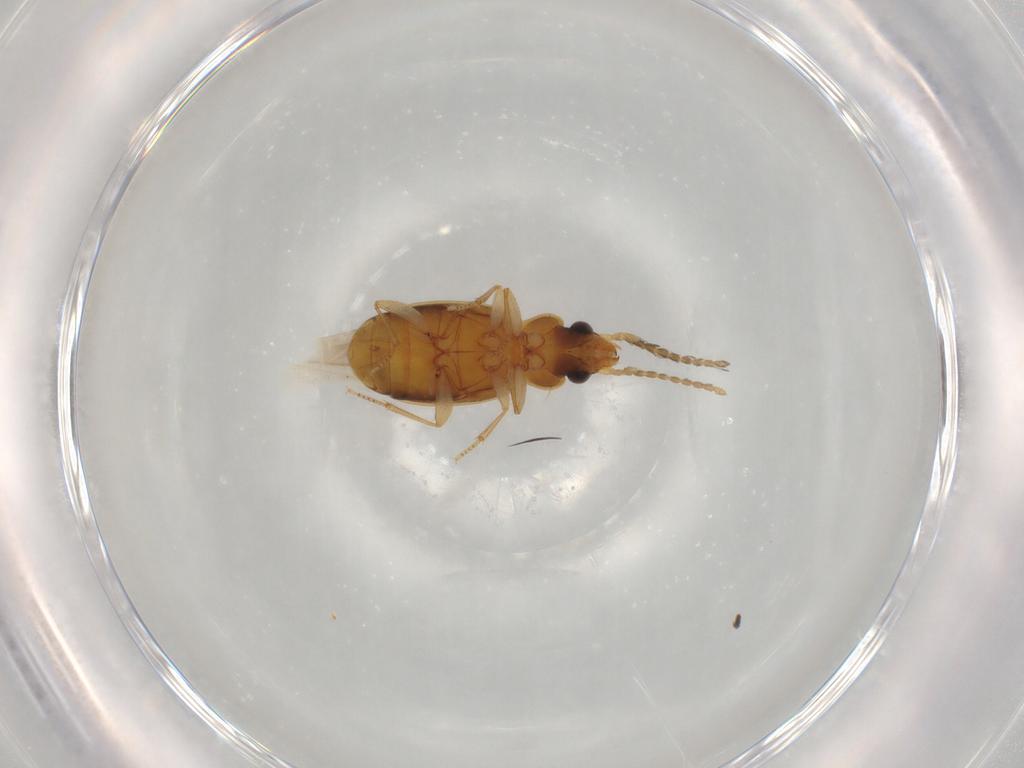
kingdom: Animalia
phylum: Arthropoda
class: Insecta
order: Coleoptera
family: Carabidae
